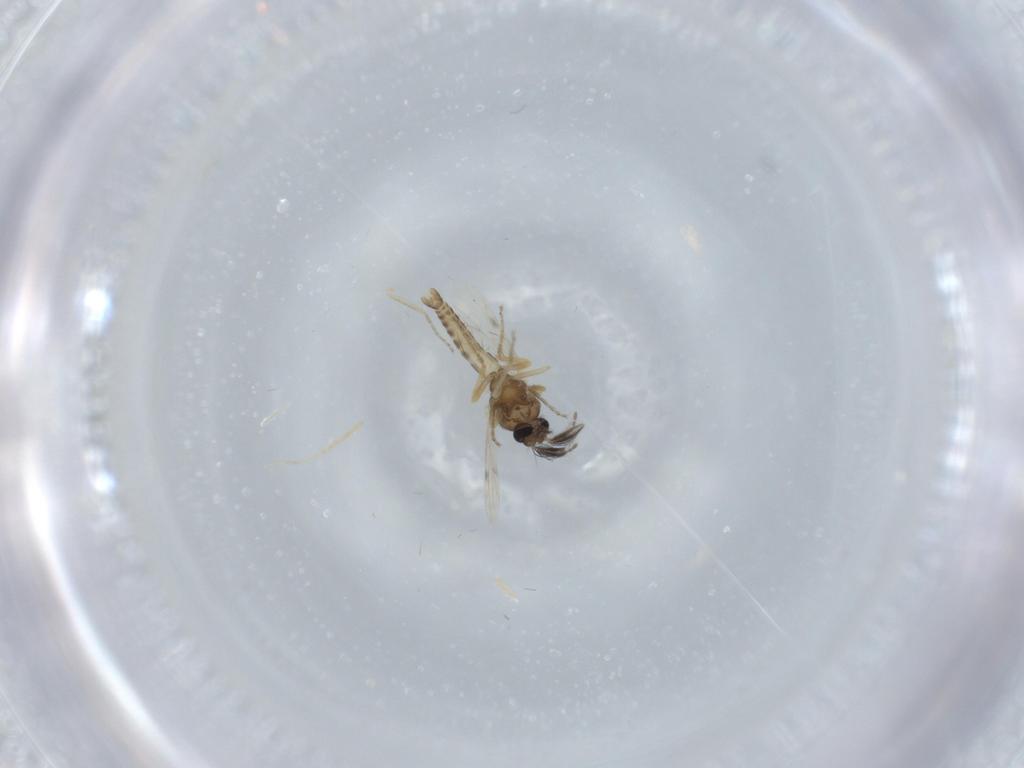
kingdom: Animalia
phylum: Arthropoda
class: Insecta
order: Diptera
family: Ceratopogonidae
